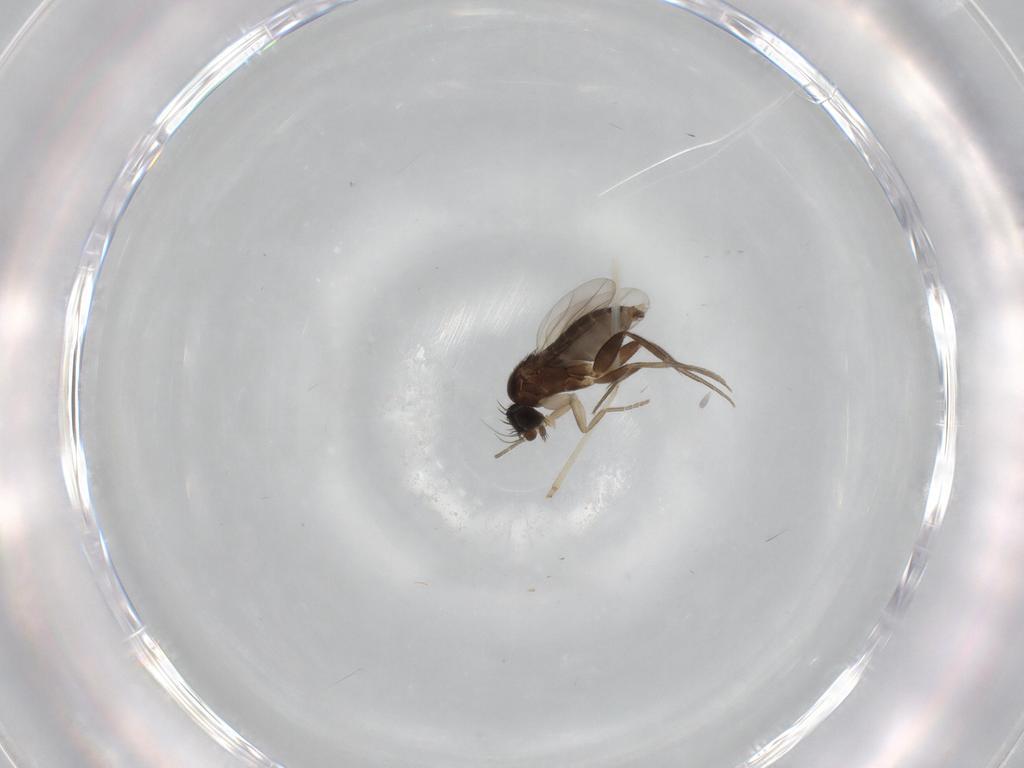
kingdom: Animalia
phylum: Arthropoda
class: Insecta
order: Diptera
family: Phoridae
